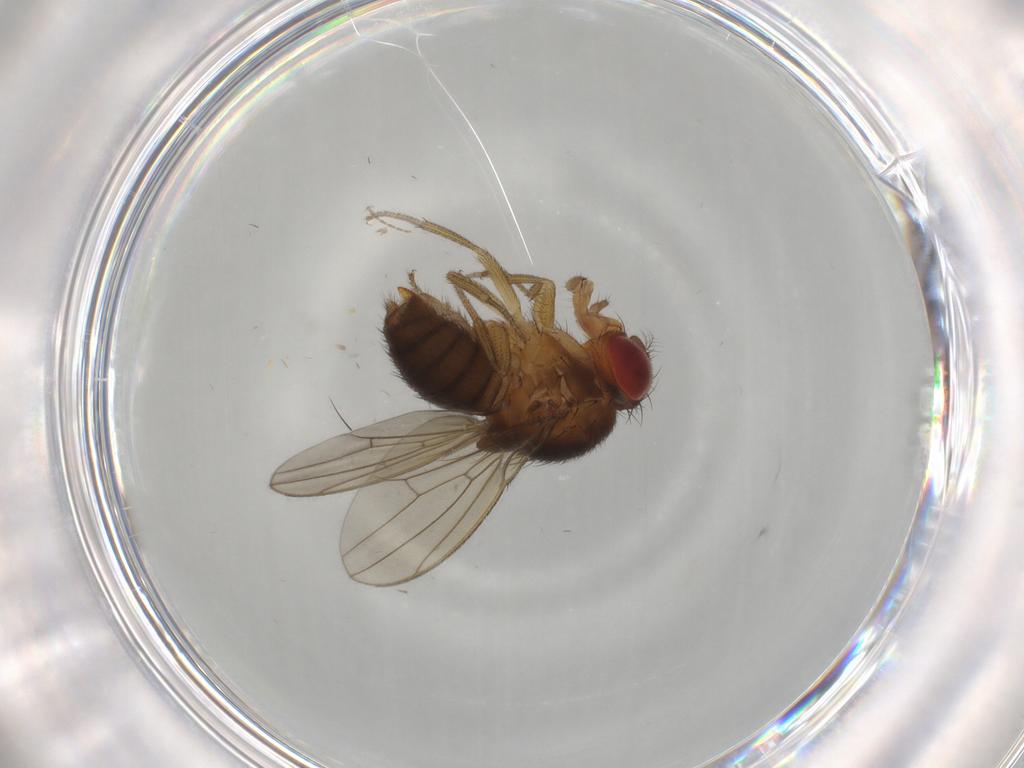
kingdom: Animalia
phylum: Arthropoda
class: Insecta
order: Diptera
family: Drosophilidae
